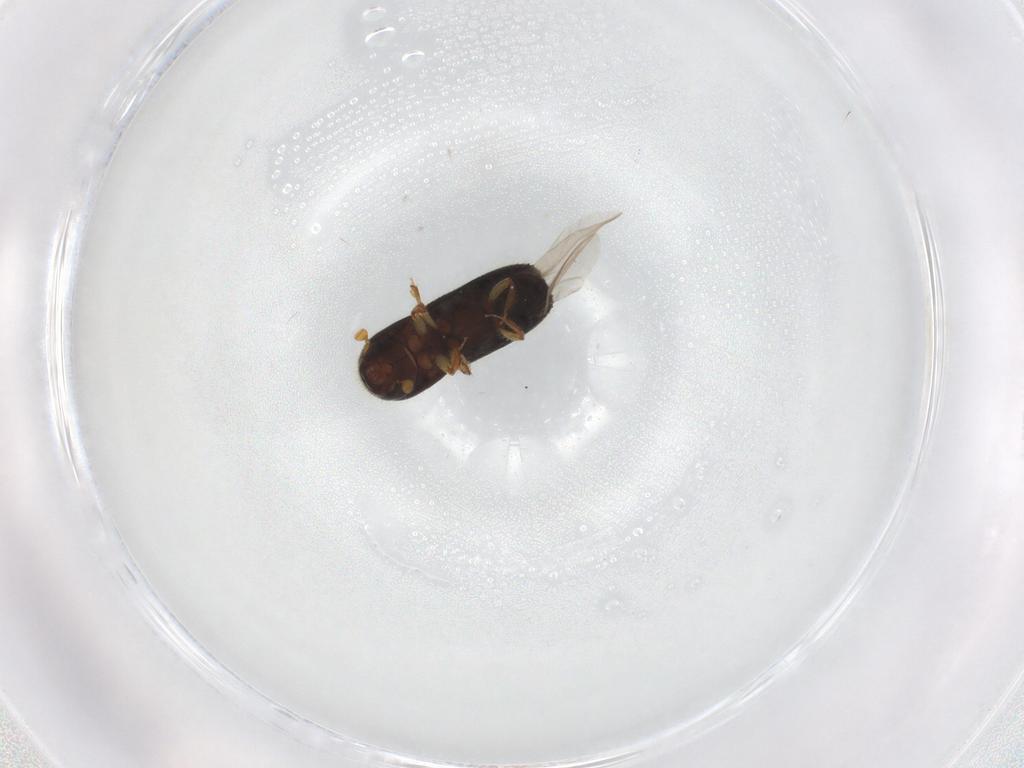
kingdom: Animalia
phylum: Arthropoda
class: Insecta
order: Coleoptera
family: Curculionidae
